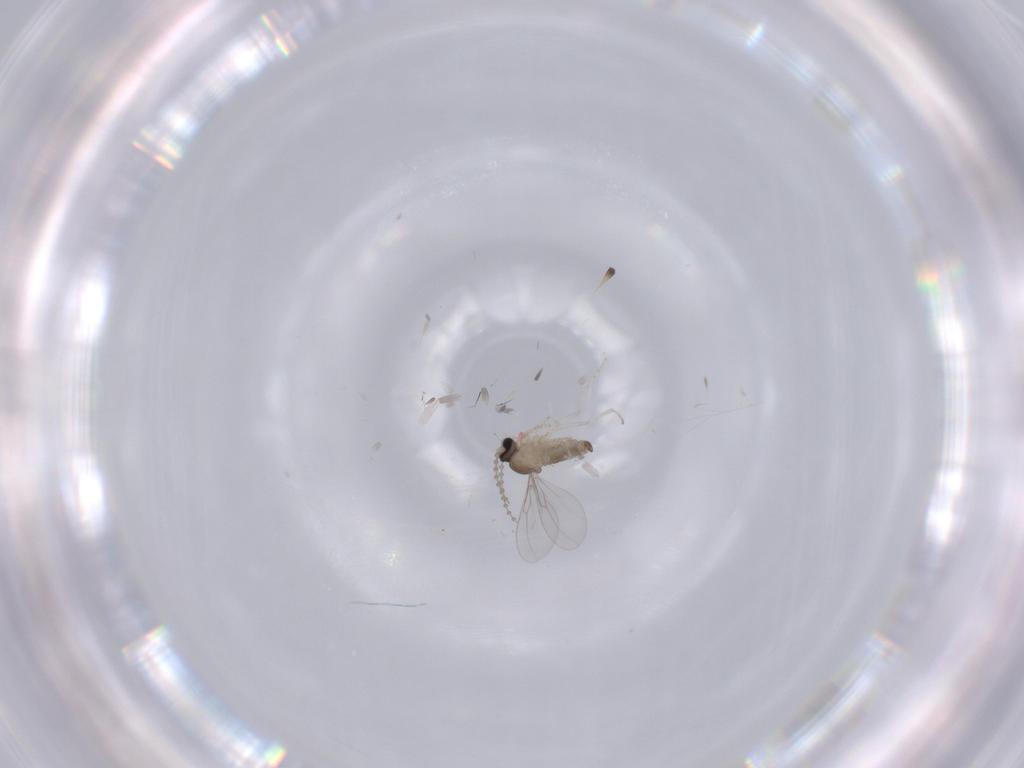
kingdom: Animalia
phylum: Arthropoda
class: Insecta
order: Diptera
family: Cecidomyiidae
